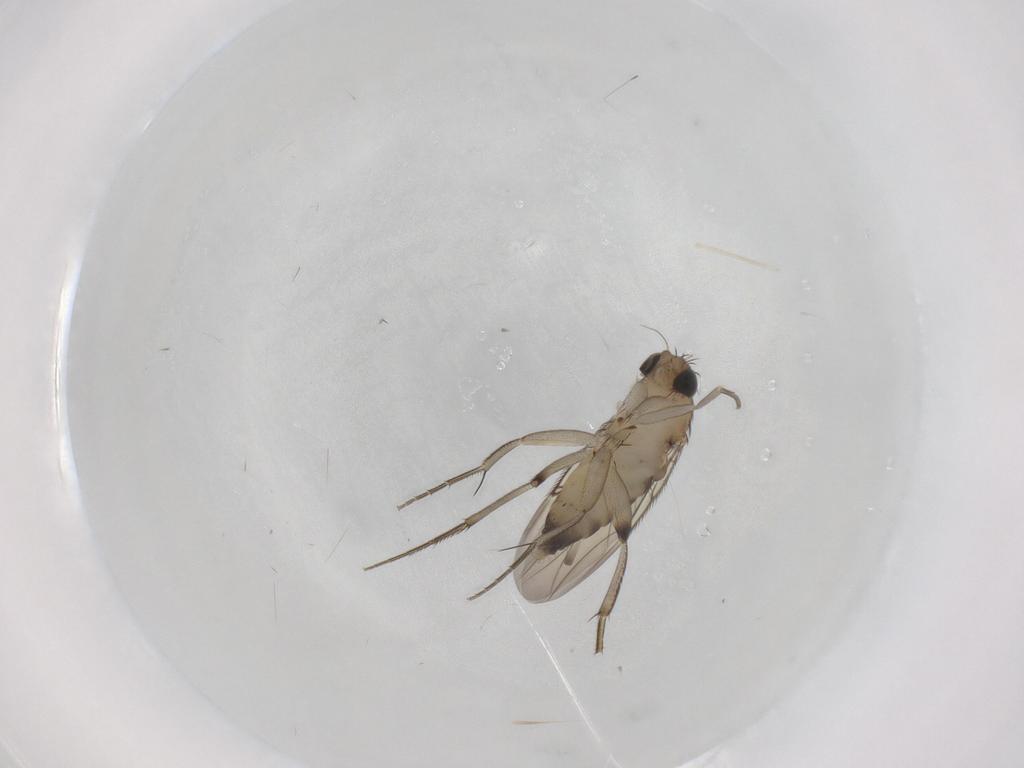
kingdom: Animalia
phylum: Arthropoda
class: Insecta
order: Diptera
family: Phoridae
